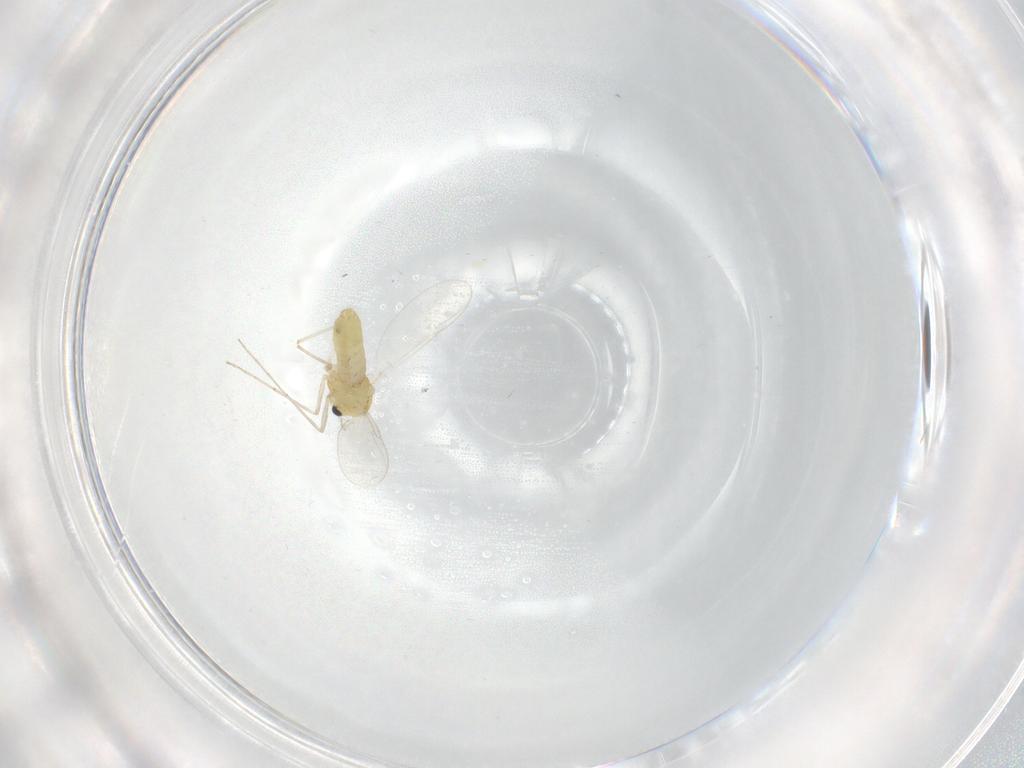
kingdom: Animalia
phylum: Arthropoda
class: Insecta
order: Diptera
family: Chironomidae
